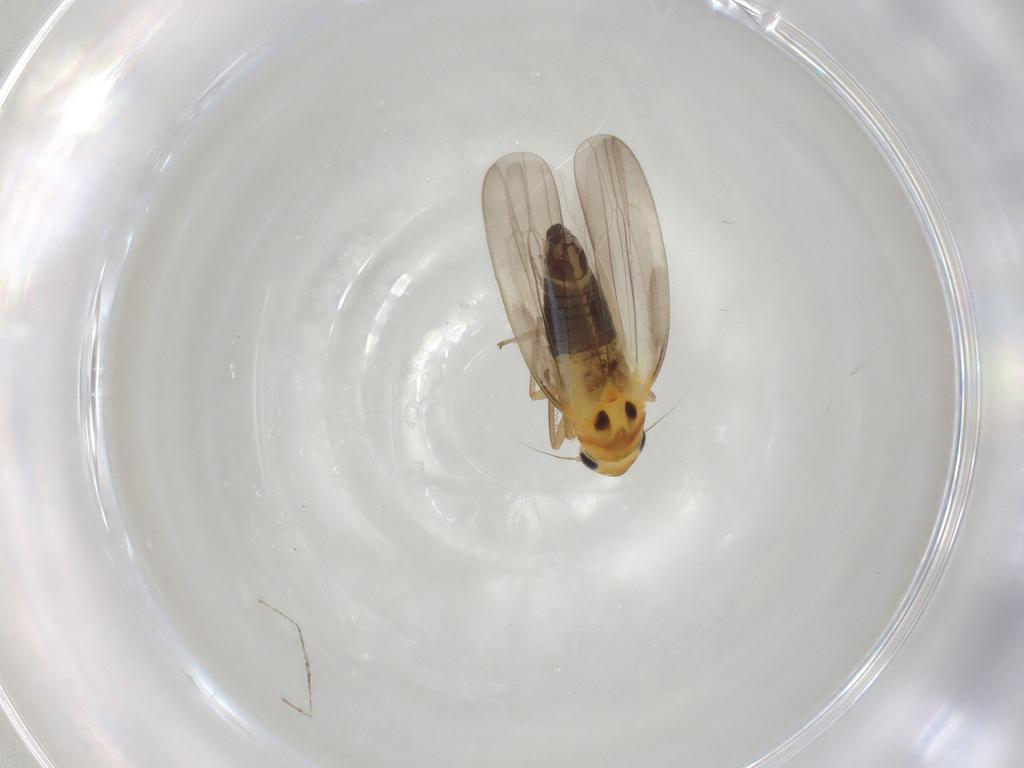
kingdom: Animalia
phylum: Arthropoda
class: Insecta
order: Hemiptera
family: Cicadellidae
